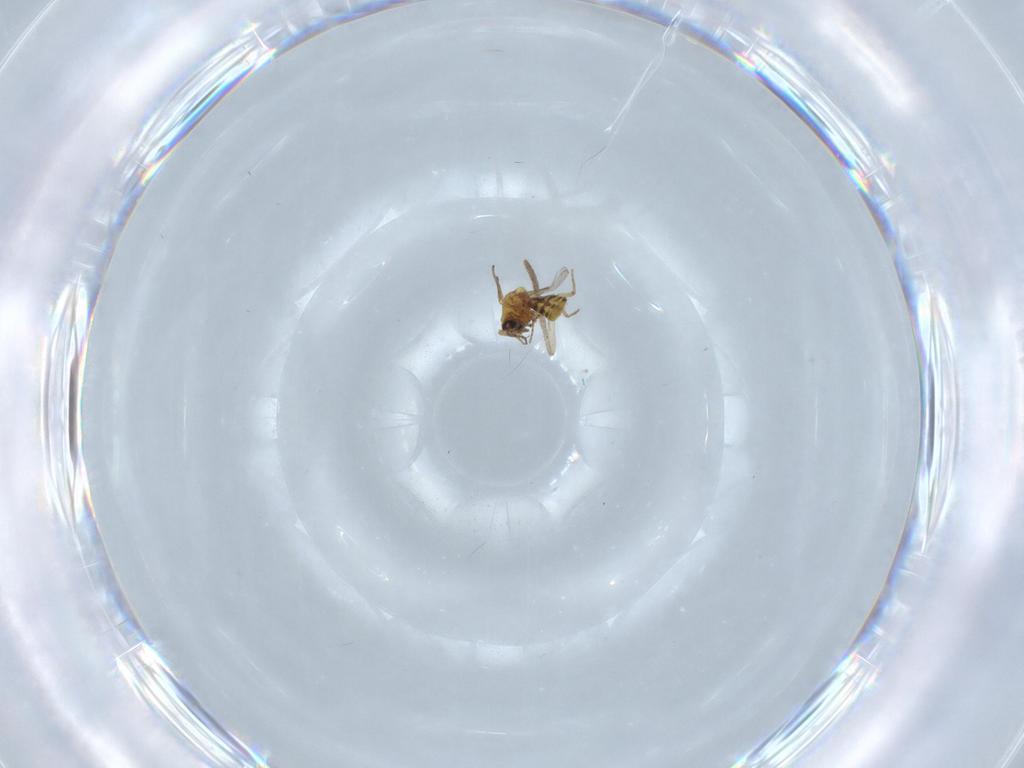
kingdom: Animalia
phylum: Arthropoda
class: Insecta
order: Diptera
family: Ceratopogonidae
